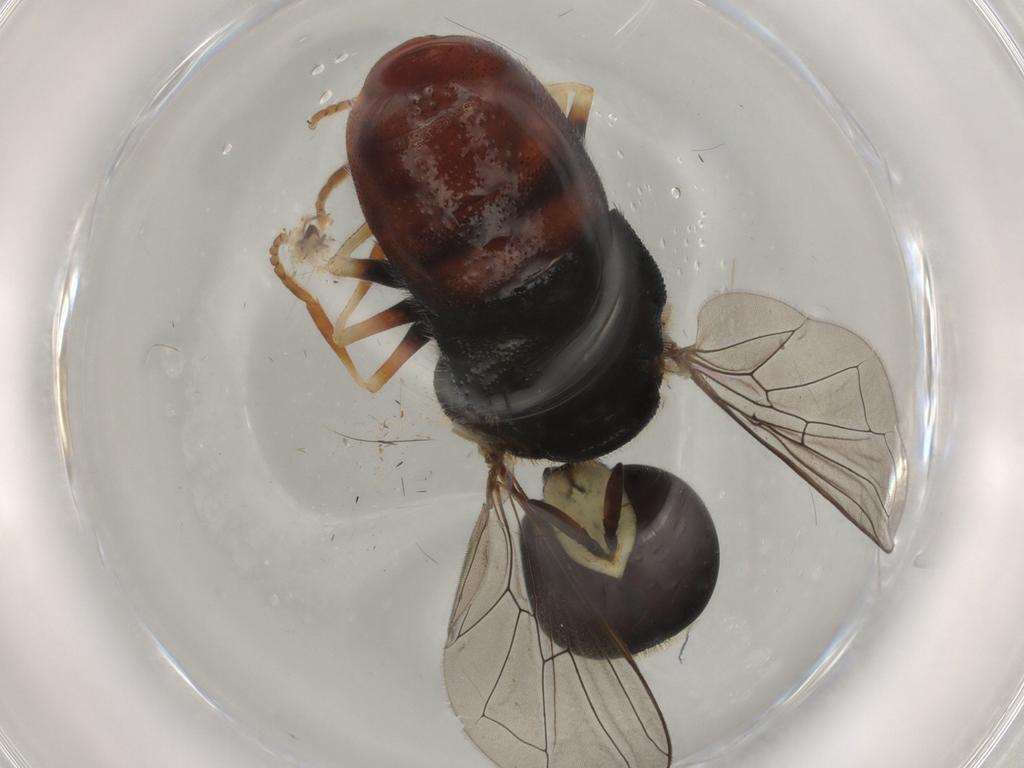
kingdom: Animalia
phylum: Arthropoda
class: Insecta
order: Diptera
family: Syrphidae
